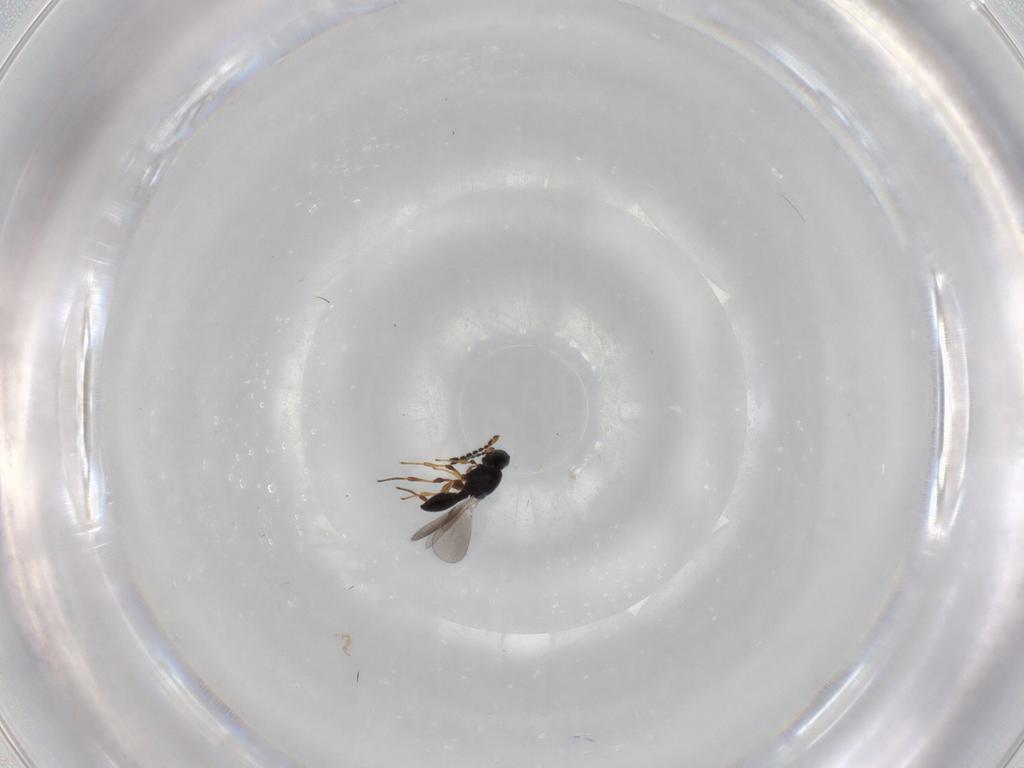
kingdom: Animalia
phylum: Arthropoda
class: Insecta
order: Hymenoptera
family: Platygastridae
